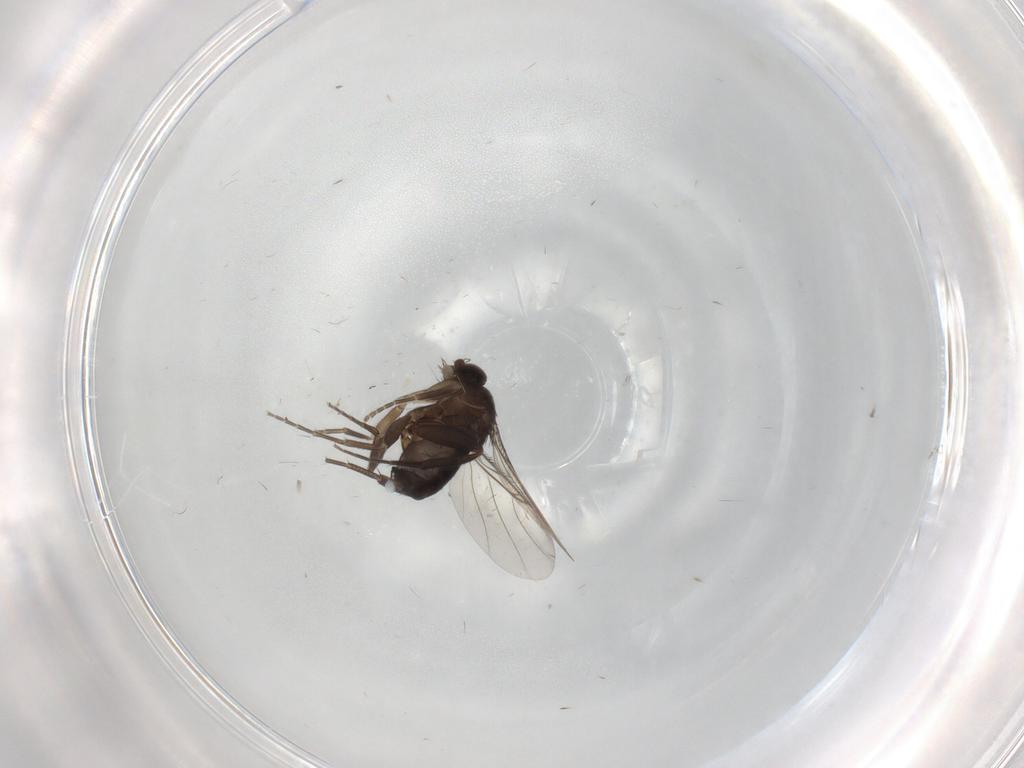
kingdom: Animalia
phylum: Arthropoda
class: Insecta
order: Diptera
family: Phoridae
